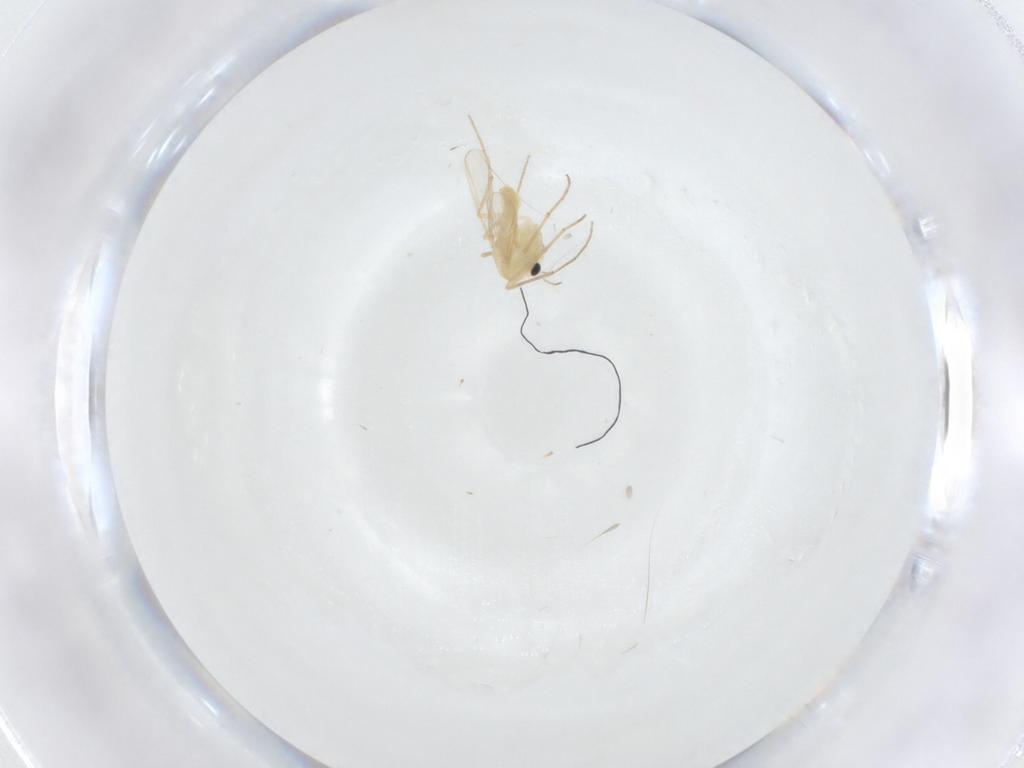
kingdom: Animalia
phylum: Arthropoda
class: Insecta
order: Diptera
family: Chironomidae
